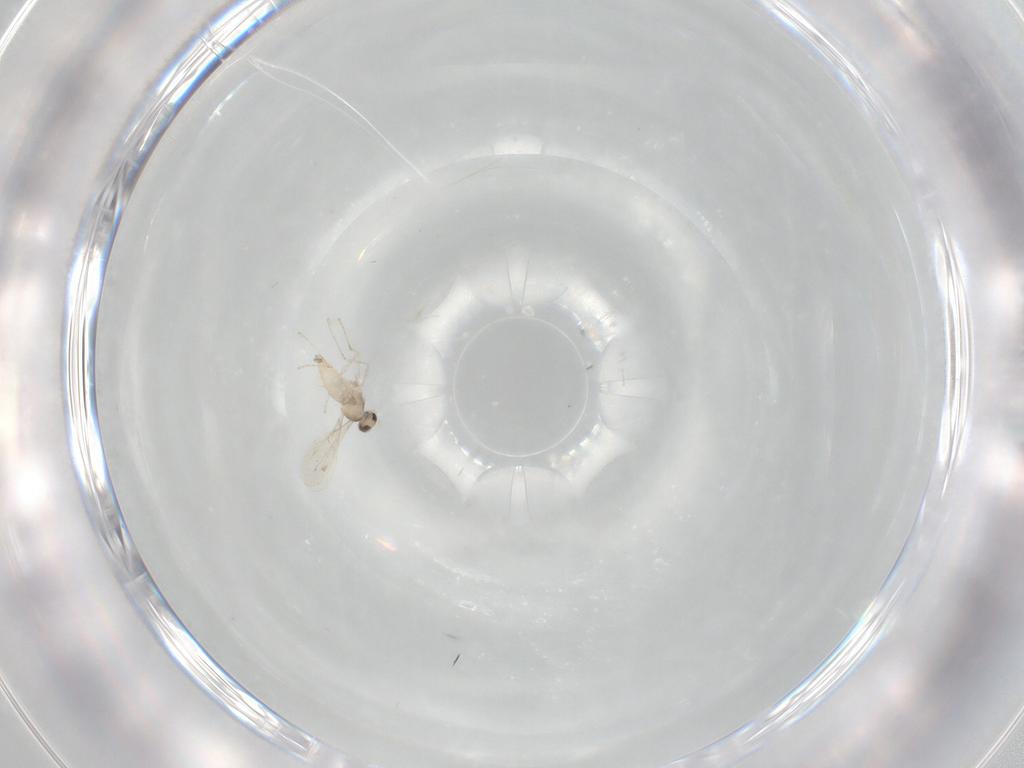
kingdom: Animalia
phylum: Arthropoda
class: Insecta
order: Diptera
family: Cecidomyiidae
